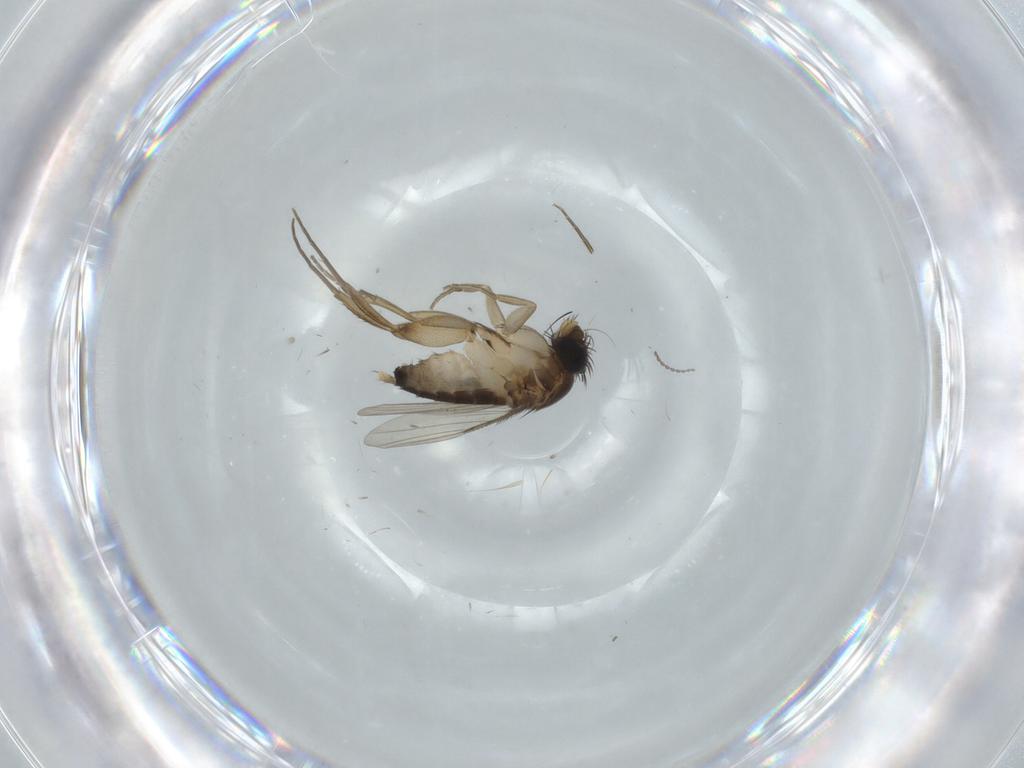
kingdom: Animalia
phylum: Arthropoda
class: Insecta
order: Diptera
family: Phoridae
